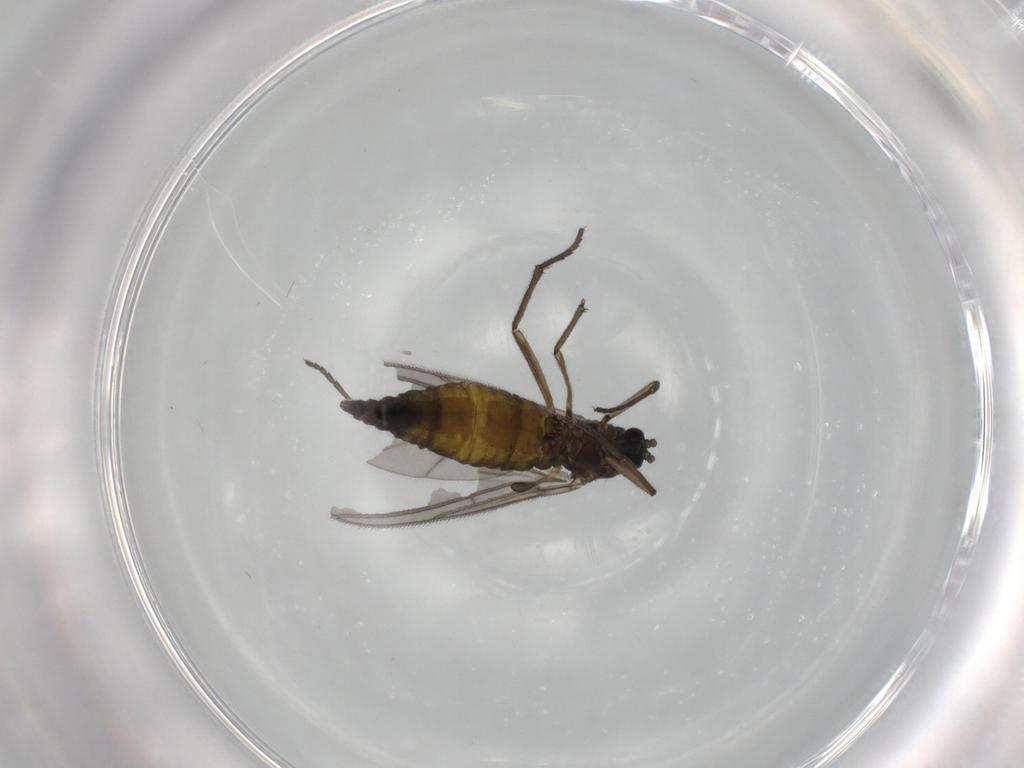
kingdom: Animalia
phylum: Arthropoda
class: Insecta
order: Diptera
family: Sciaridae
